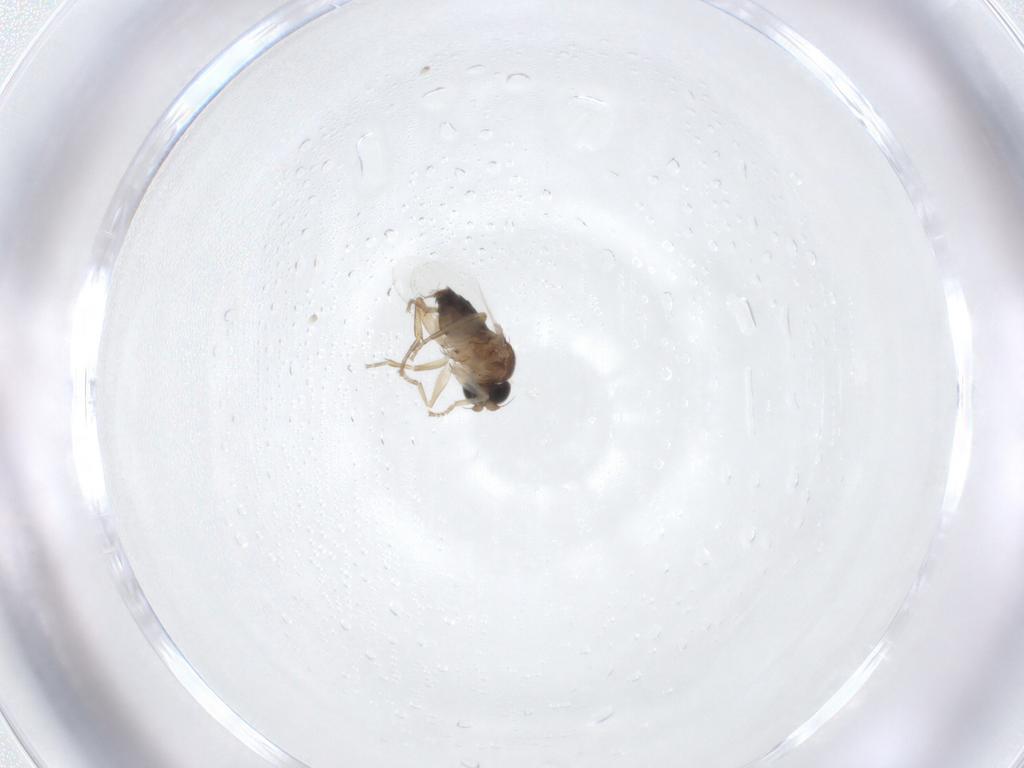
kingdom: Animalia
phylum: Arthropoda
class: Insecta
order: Diptera
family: Phoridae
